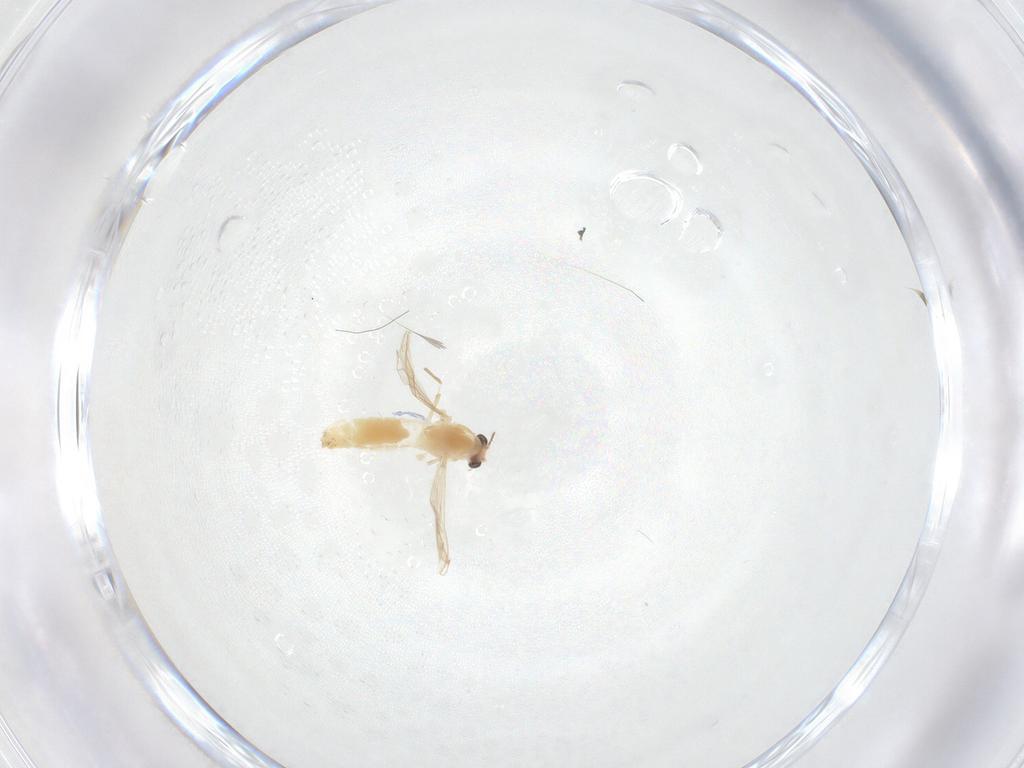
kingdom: Animalia
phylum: Arthropoda
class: Insecta
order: Diptera
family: Chironomidae
